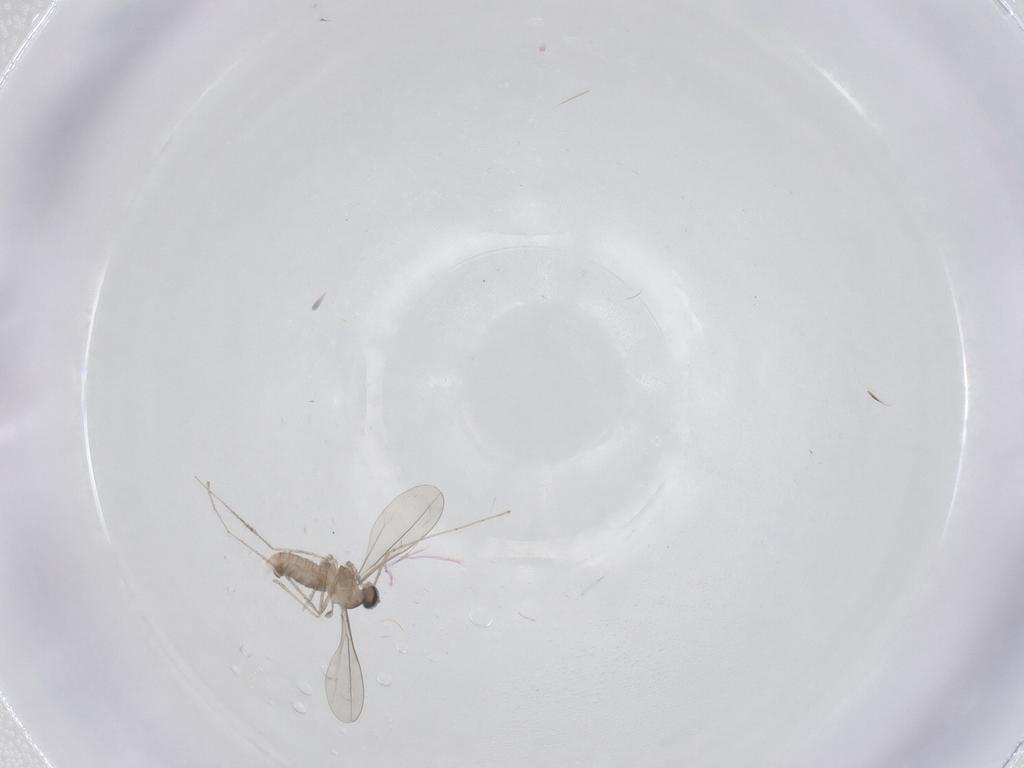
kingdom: Animalia
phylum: Arthropoda
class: Insecta
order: Diptera
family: Cecidomyiidae
